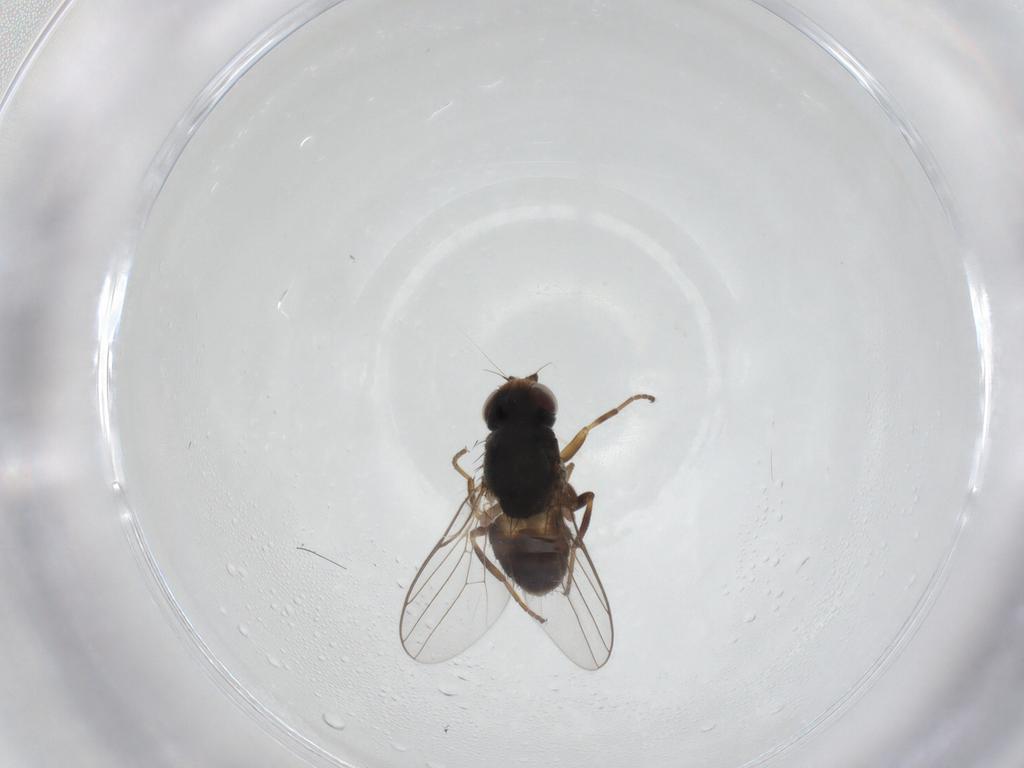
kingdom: Animalia
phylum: Arthropoda
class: Insecta
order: Diptera
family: Chloropidae
